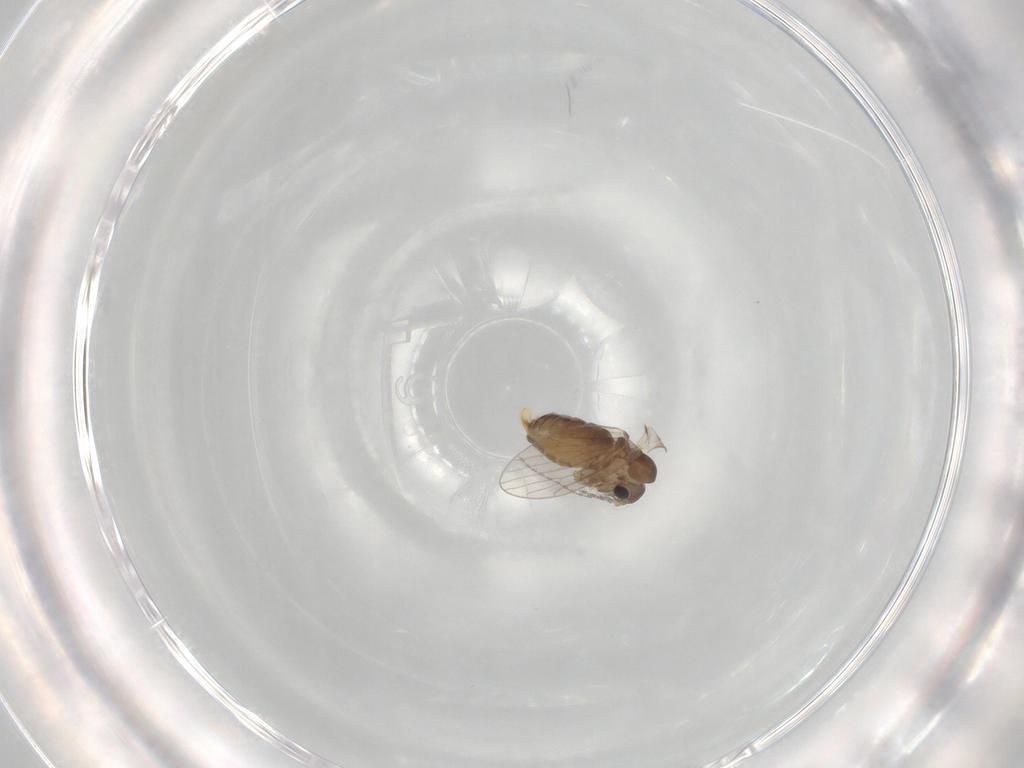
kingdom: Animalia
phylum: Arthropoda
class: Insecta
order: Diptera
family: Psychodidae
